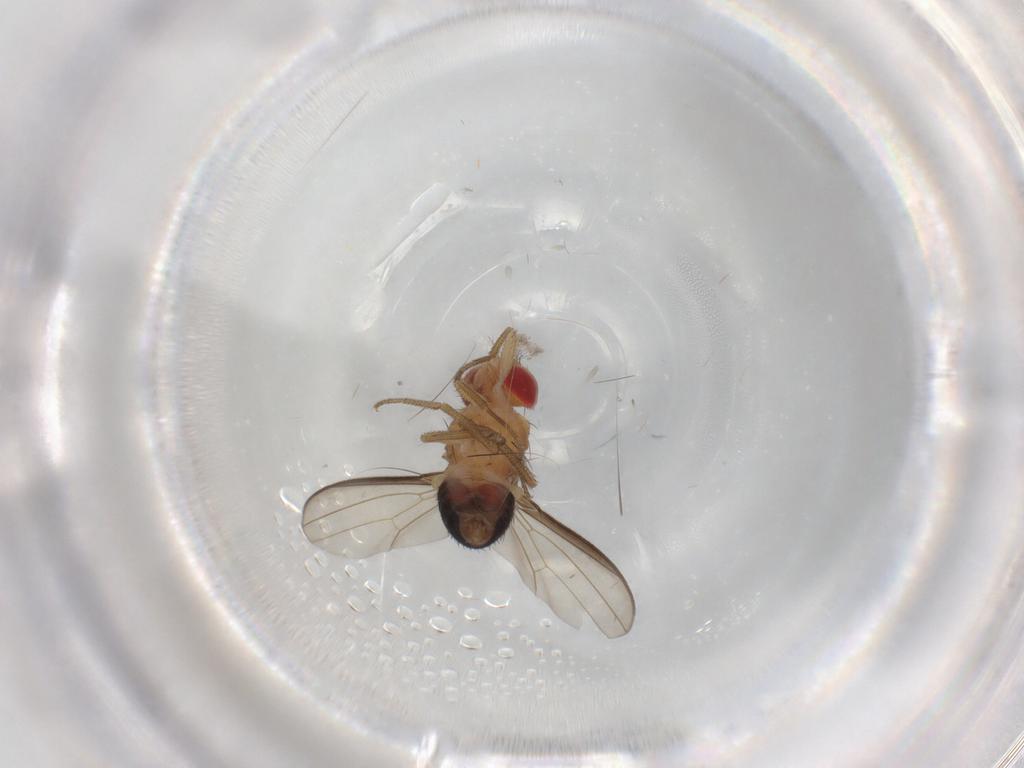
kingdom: Animalia
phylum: Arthropoda
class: Insecta
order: Diptera
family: Drosophilidae
